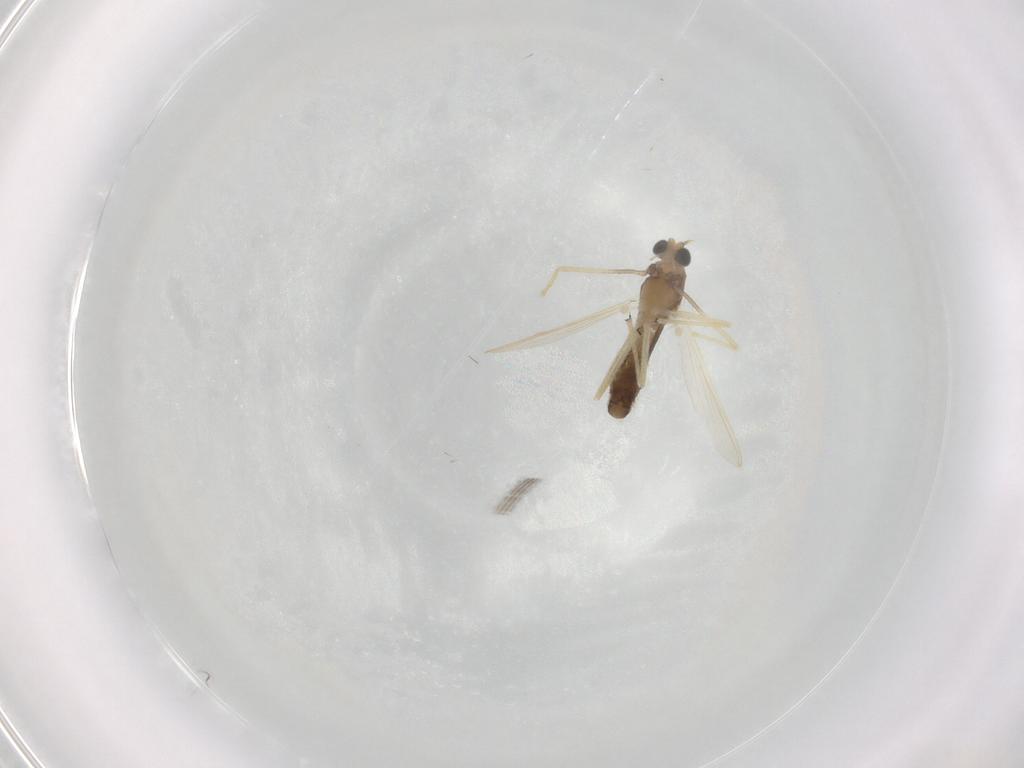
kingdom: Animalia
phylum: Arthropoda
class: Insecta
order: Diptera
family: Chironomidae
